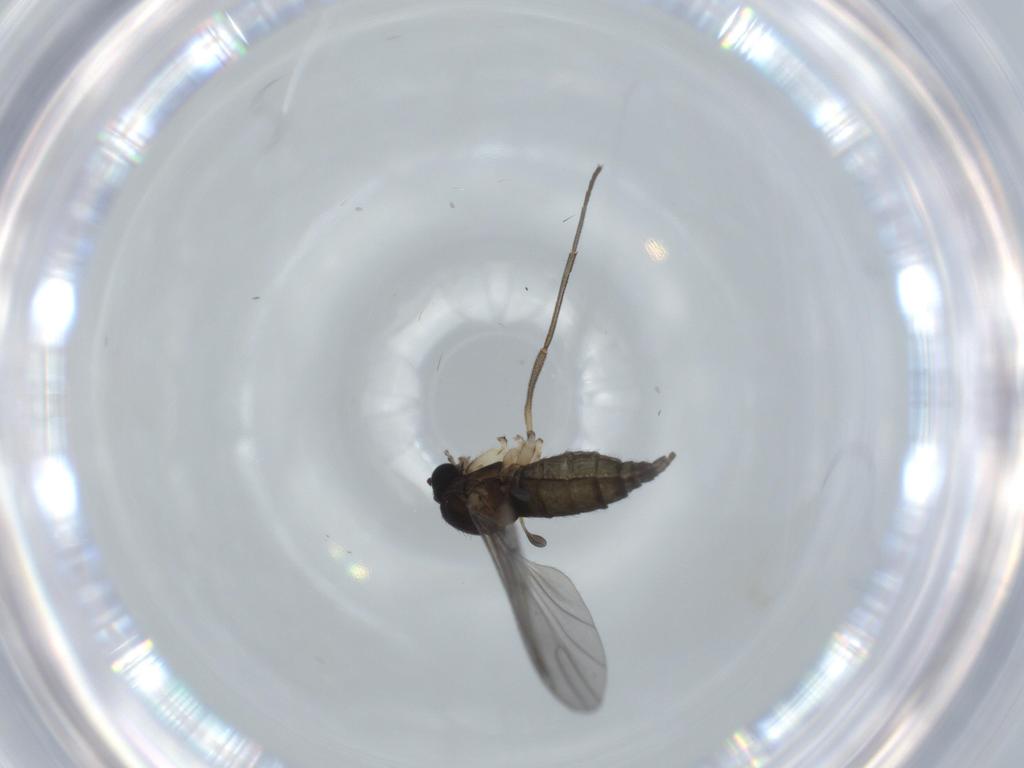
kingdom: Animalia
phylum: Arthropoda
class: Insecta
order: Diptera
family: Sciaridae
